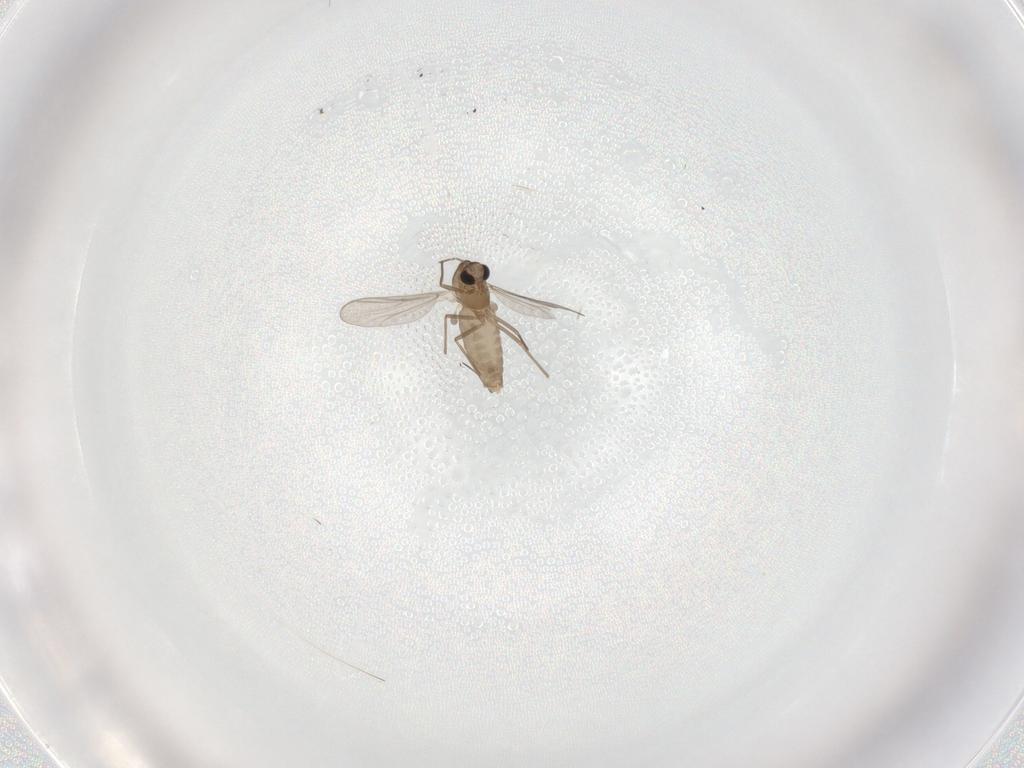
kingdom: Animalia
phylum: Arthropoda
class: Insecta
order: Diptera
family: Chironomidae
